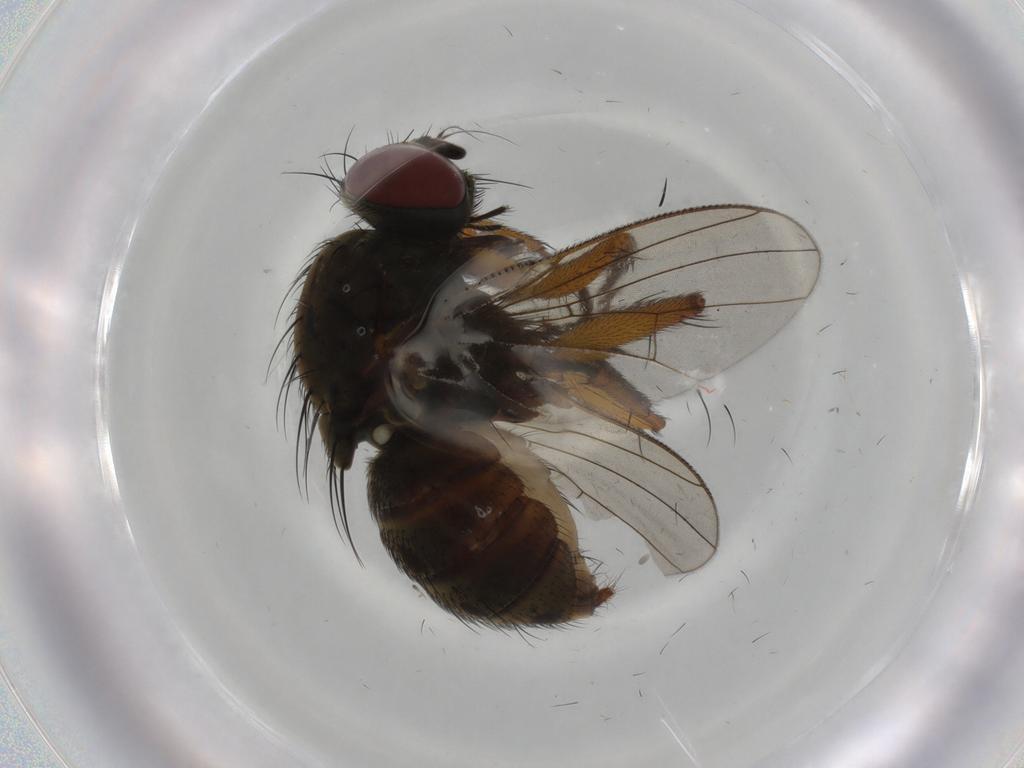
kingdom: Animalia
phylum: Arthropoda
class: Insecta
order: Diptera
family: Muscidae
